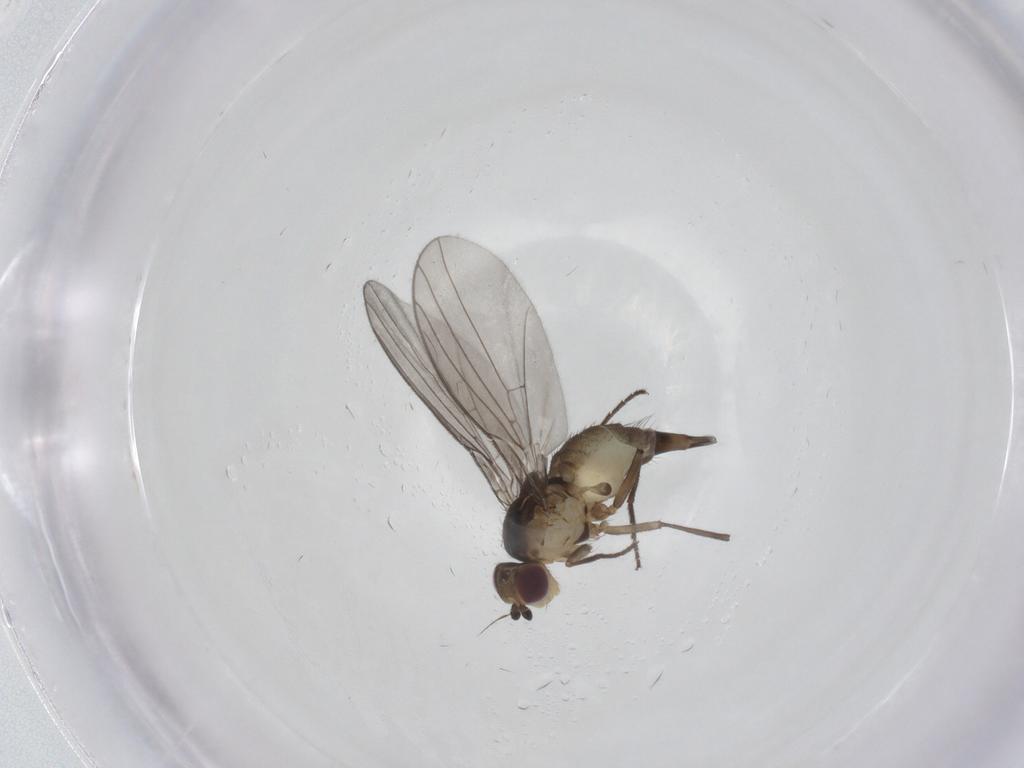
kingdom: Animalia
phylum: Arthropoda
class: Insecta
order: Diptera
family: Agromyzidae
